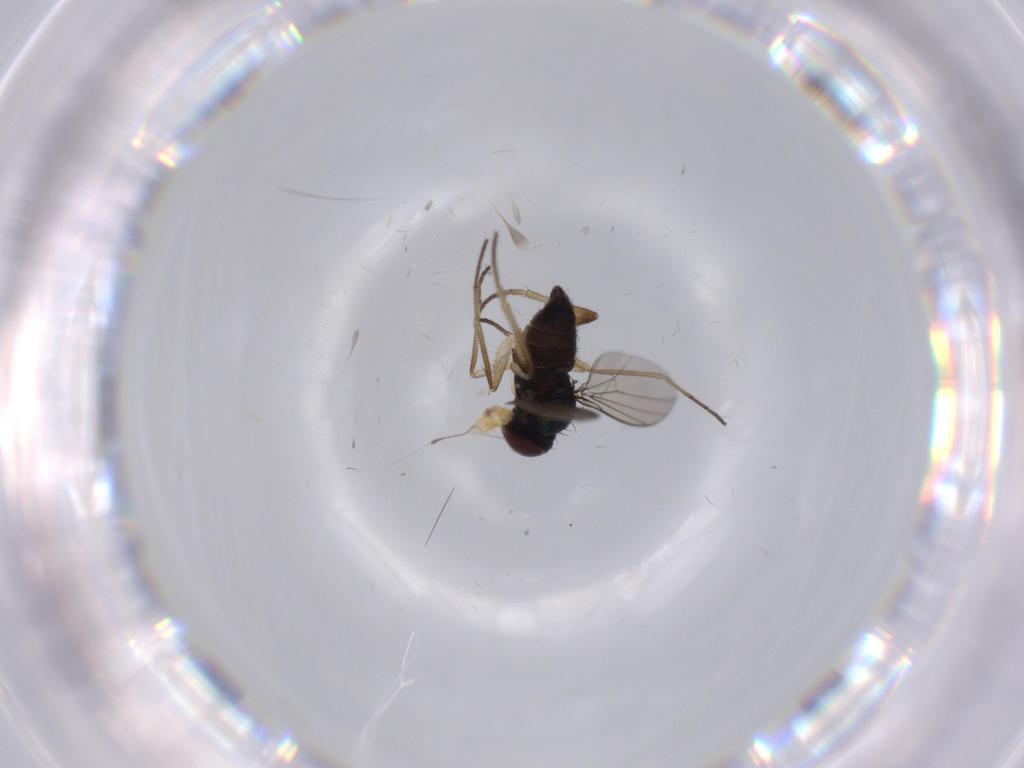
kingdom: Animalia
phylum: Arthropoda
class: Insecta
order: Diptera
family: Dolichopodidae
